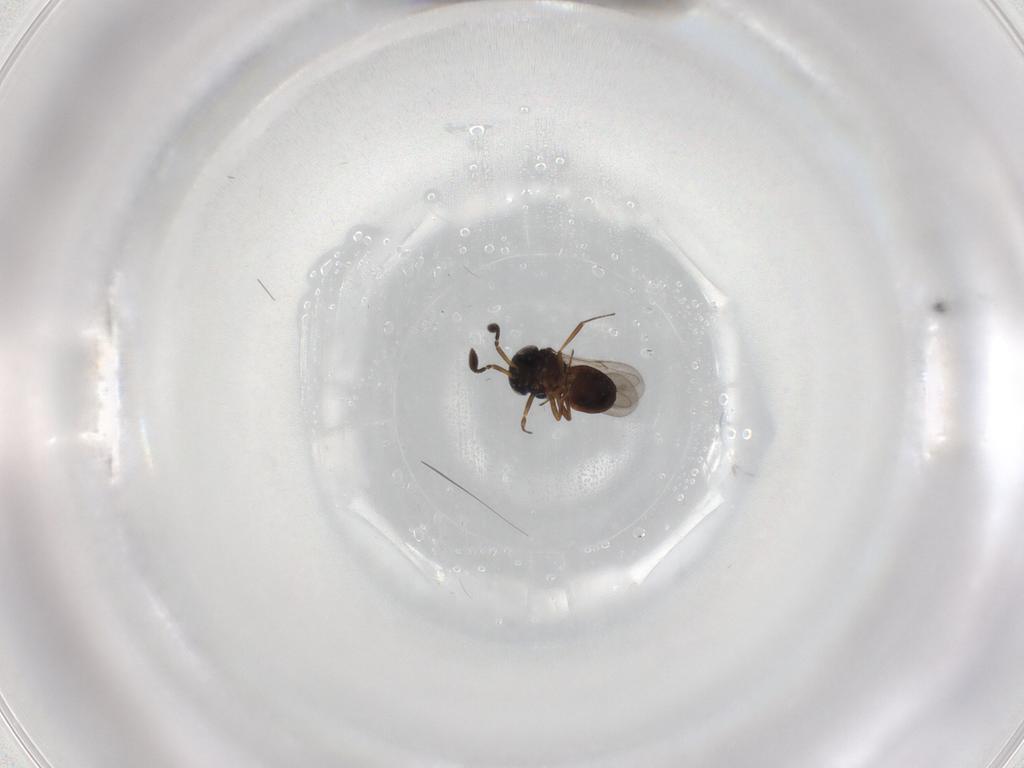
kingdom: Animalia
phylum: Arthropoda
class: Insecta
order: Hymenoptera
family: Scelionidae
